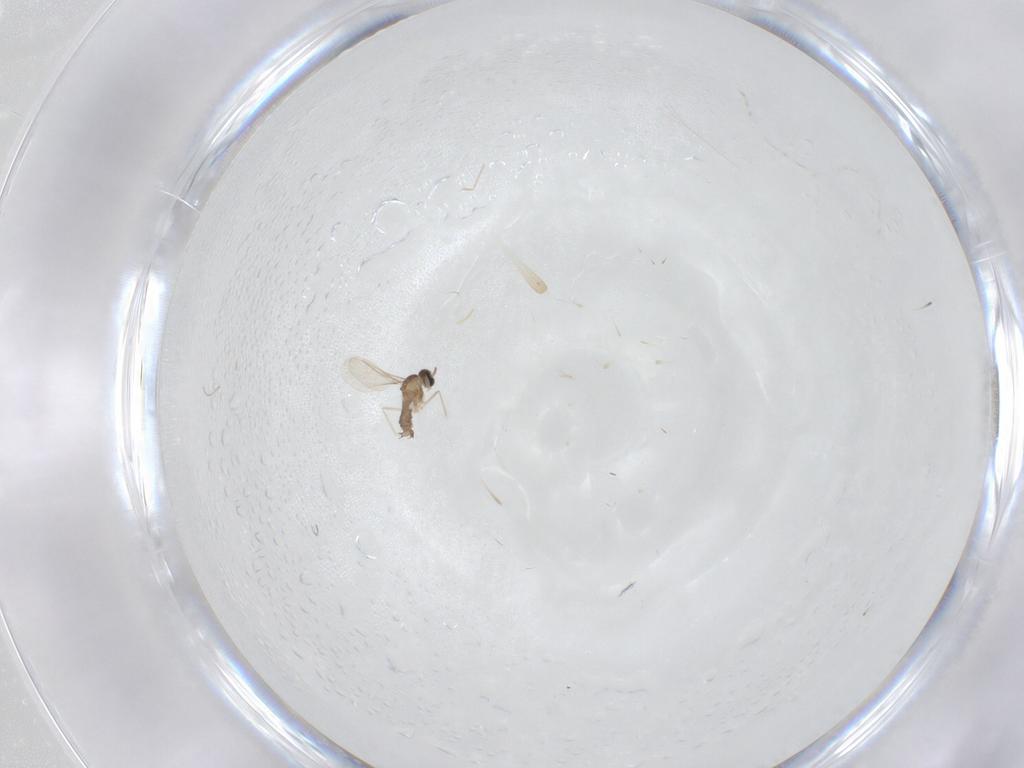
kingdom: Animalia
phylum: Arthropoda
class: Insecta
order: Diptera
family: Cecidomyiidae
